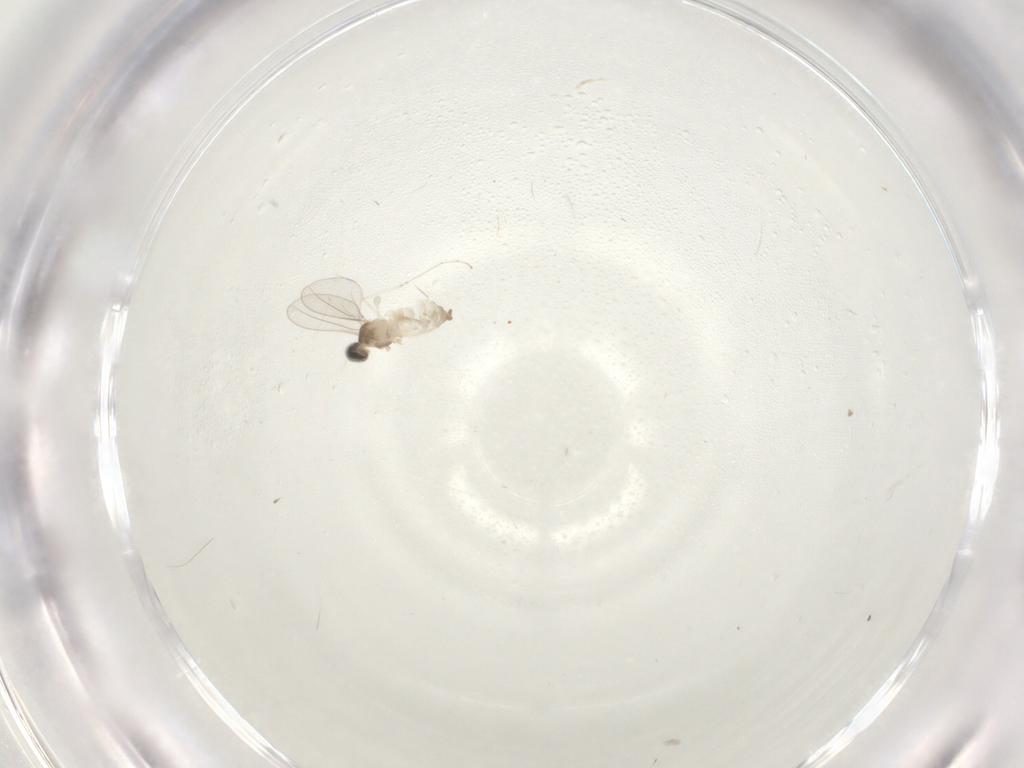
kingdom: Animalia
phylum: Arthropoda
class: Insecta
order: Diptera
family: Ceratopogonidae
